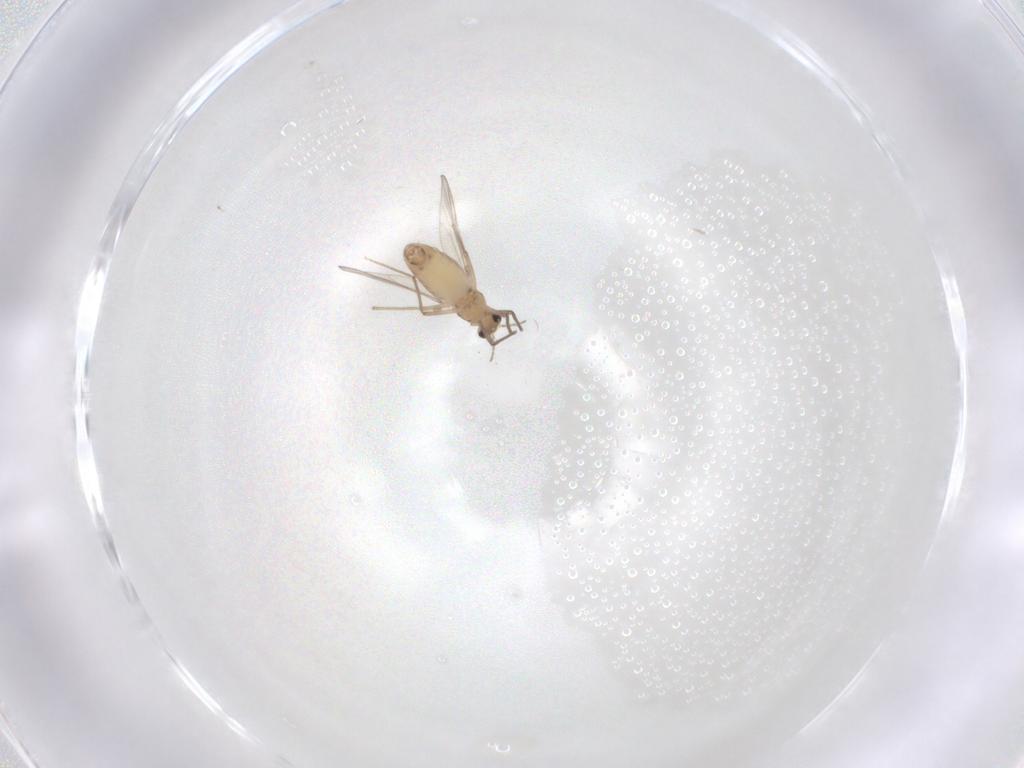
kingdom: Animalia
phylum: Arthropoda
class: Insecta
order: Diptera
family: Chironomidae
